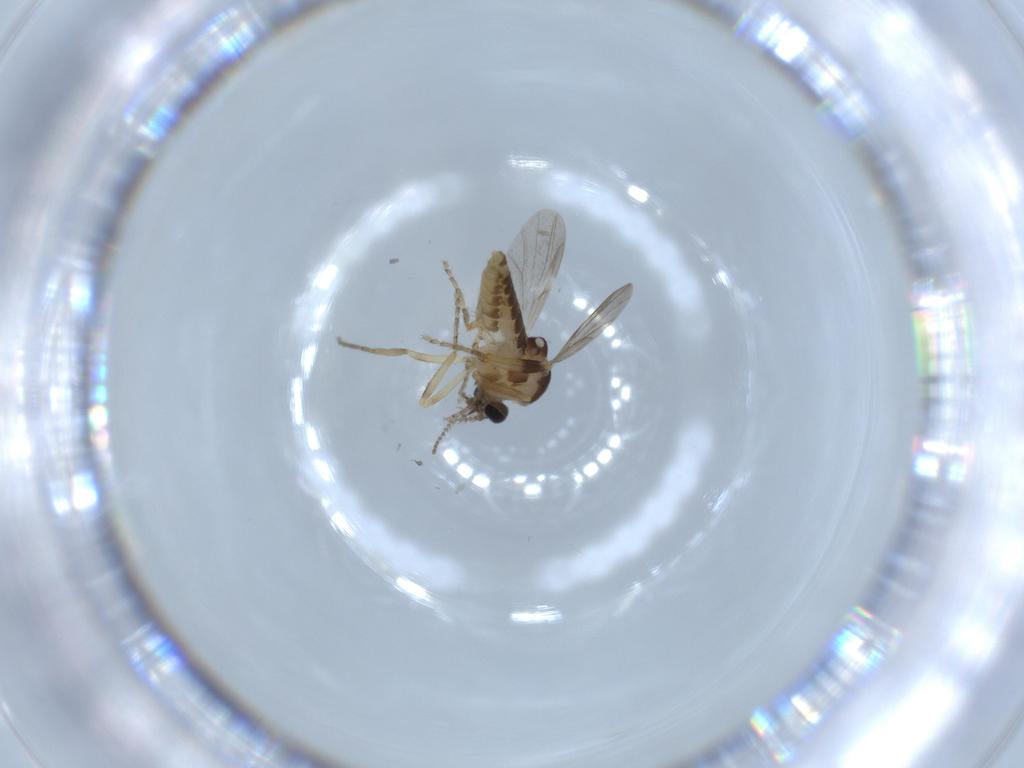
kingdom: Animalia
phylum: Arthropoda
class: Insecta
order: Diptera
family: Ceratopogonidae
